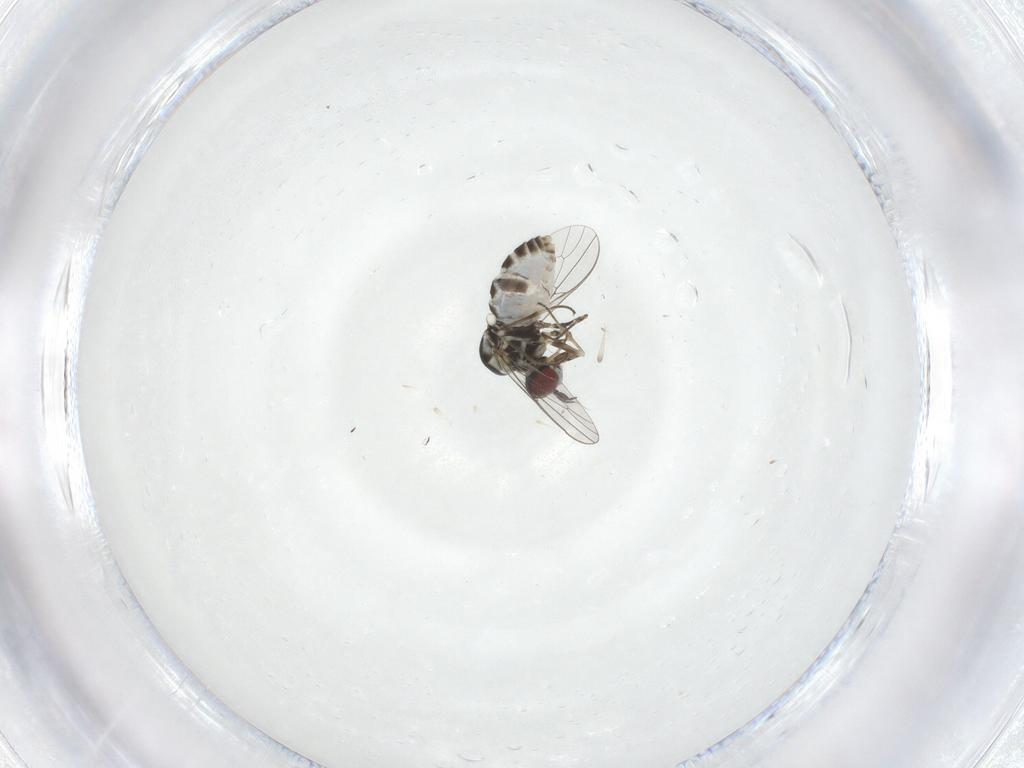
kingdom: Animalia
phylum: Arthropoda
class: Insecta
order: Diptera
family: Mythicomyiidae
